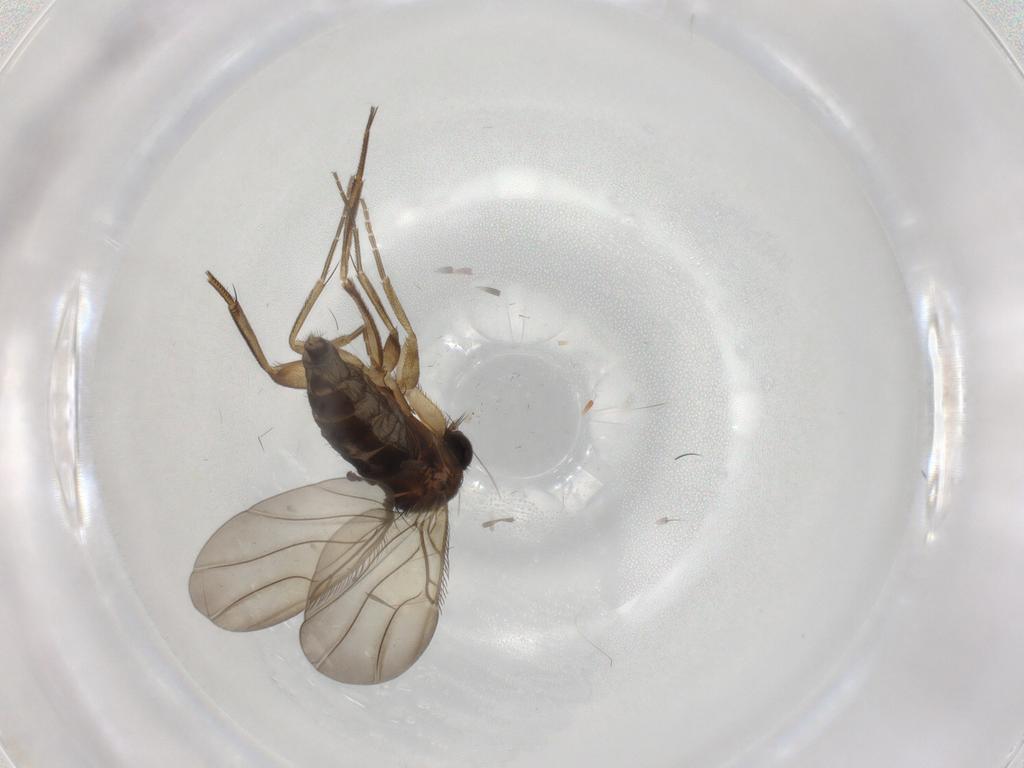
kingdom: Animalia
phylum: Arthropoda
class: Insecta
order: Diptera
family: Phoridae
